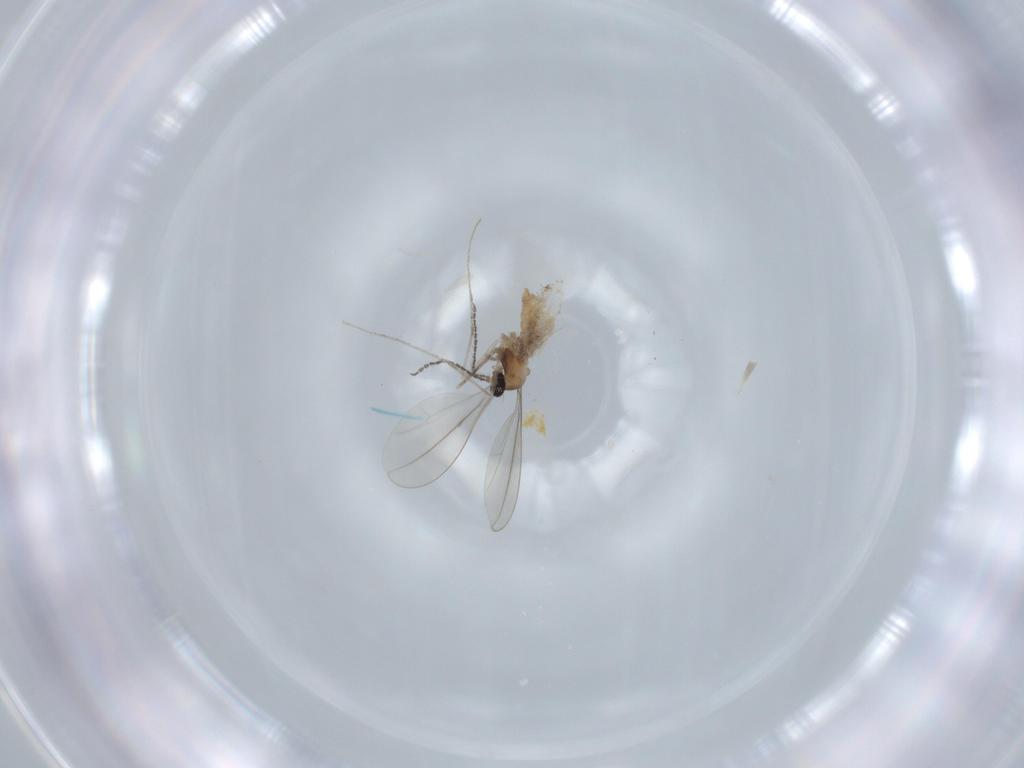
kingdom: Animalia
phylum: Arthropoda
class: Insecta
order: Diptera
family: Cecidomyiidae
